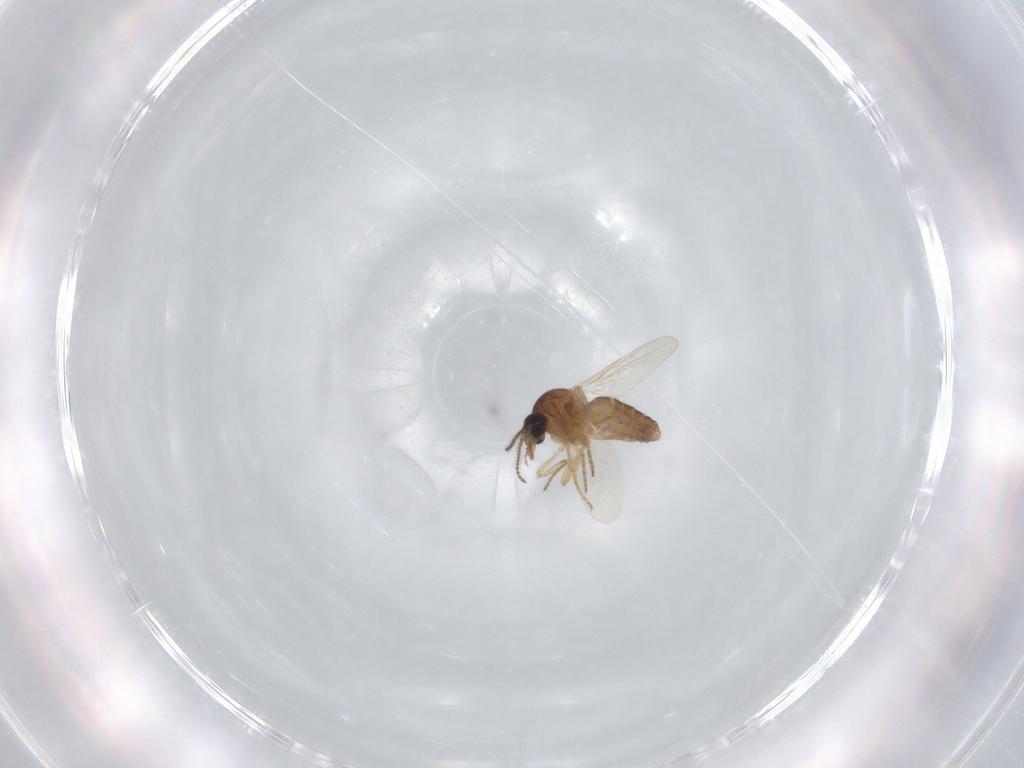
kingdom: Animalia
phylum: Arthropoda
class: Insecta
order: Diptera
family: Ceratopogonidae
